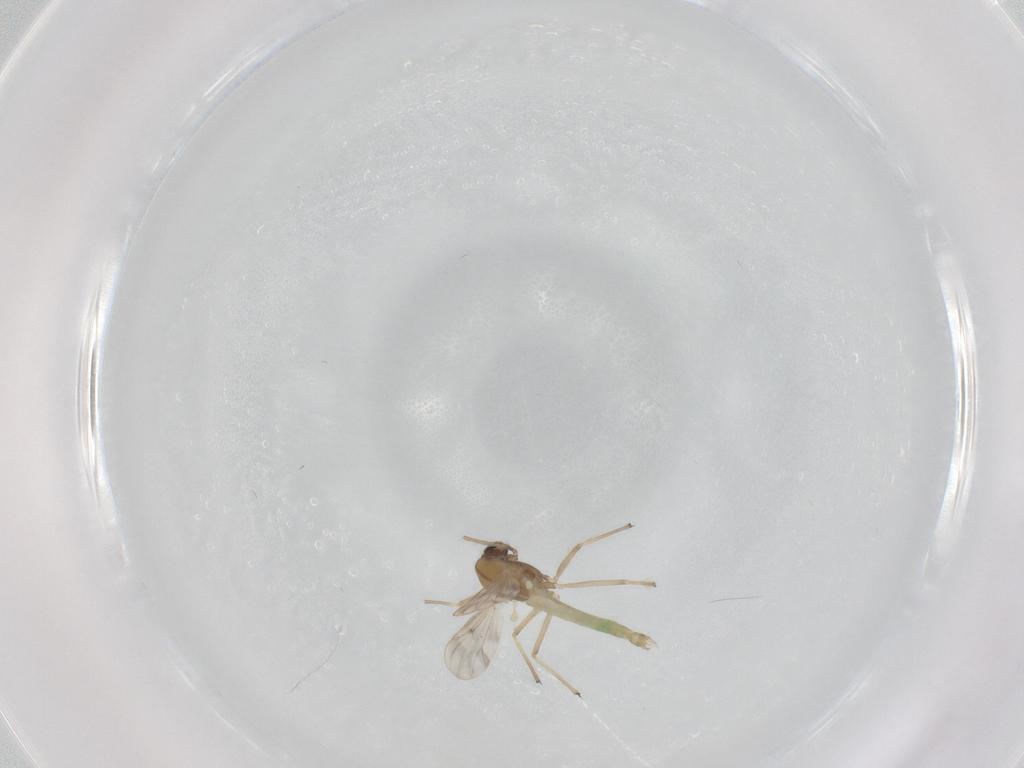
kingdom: Animalia
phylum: Arthropoda
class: Insecta
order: Diptera
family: Chironomidae
